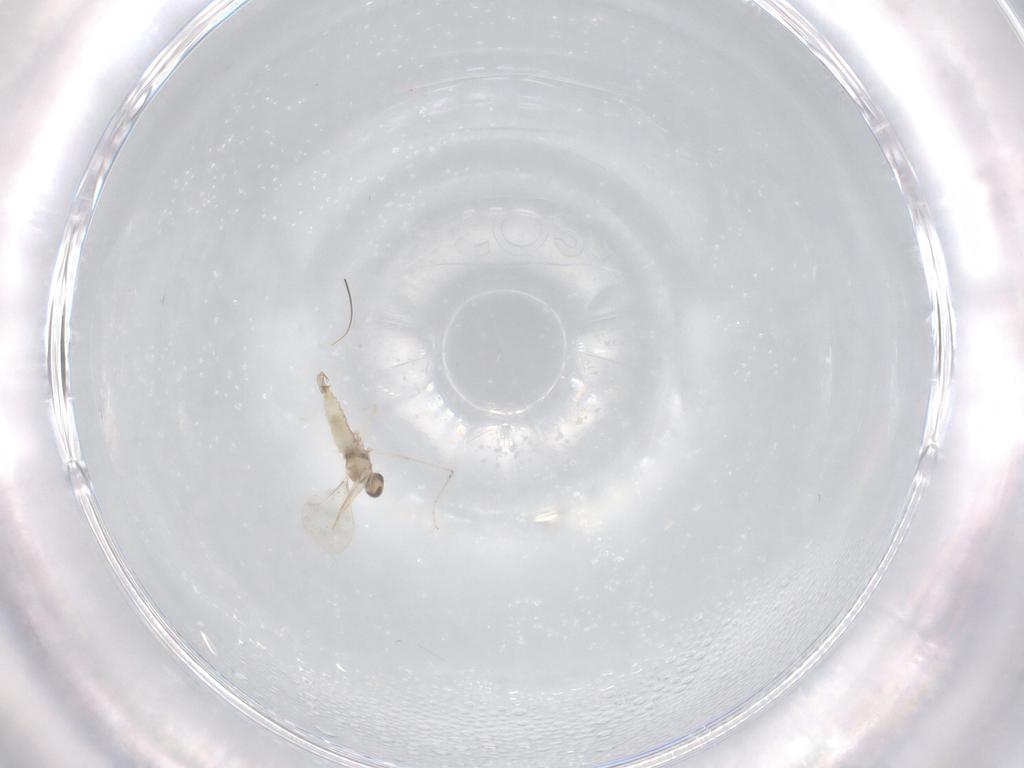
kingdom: Animalia
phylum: Arthropoda
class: Insecta
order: Diptera
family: Cecidomyiidae
